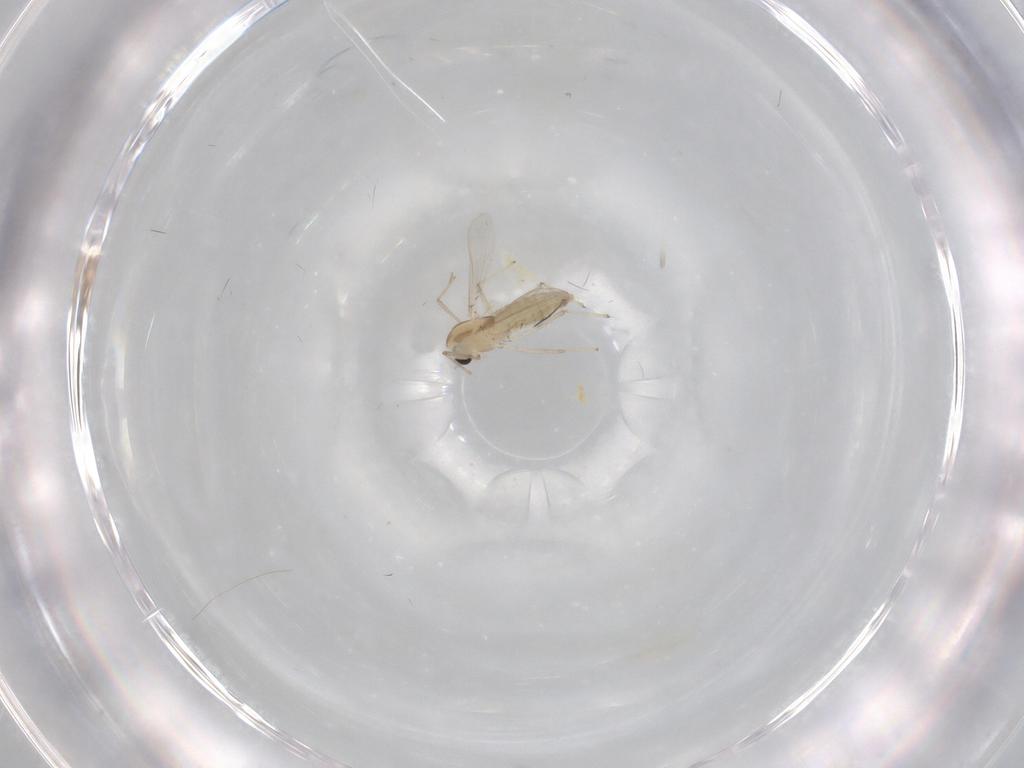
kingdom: Animalia
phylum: Arthropoda
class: Insecta
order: Diptera
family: Chironomidae
